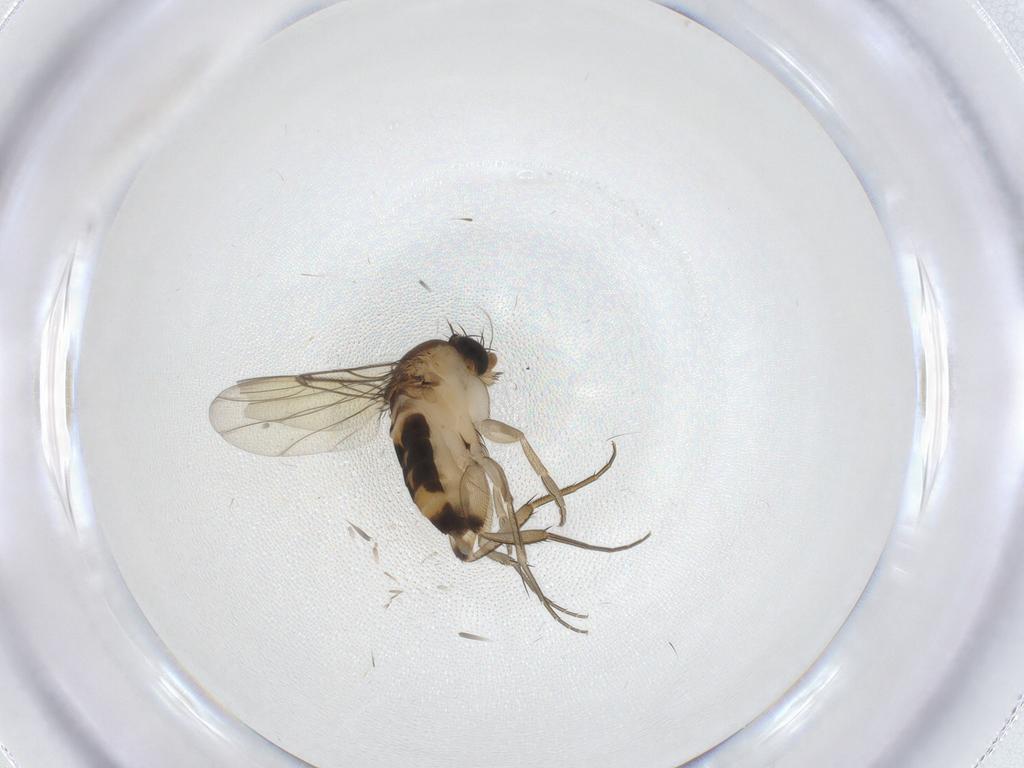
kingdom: Animalia
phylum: Arthropoda
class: Insecta
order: Diptera
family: Phoridae
